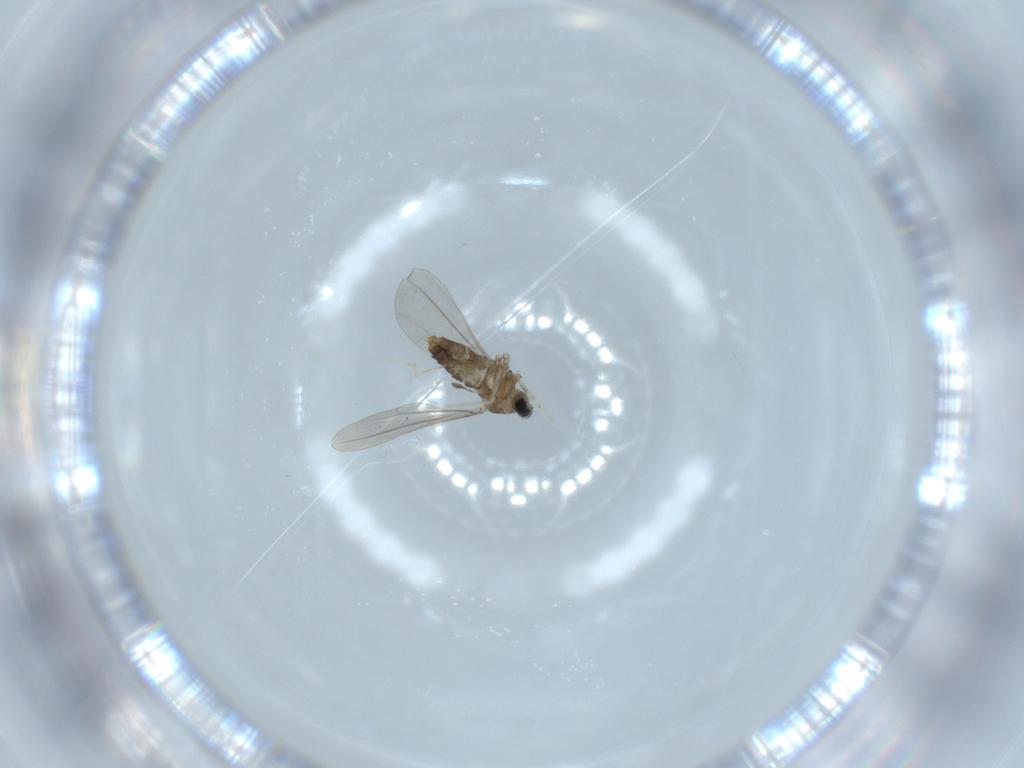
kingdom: Animalia
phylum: Arthropoda
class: Insecta
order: Diptera
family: Cecidomyiidae
